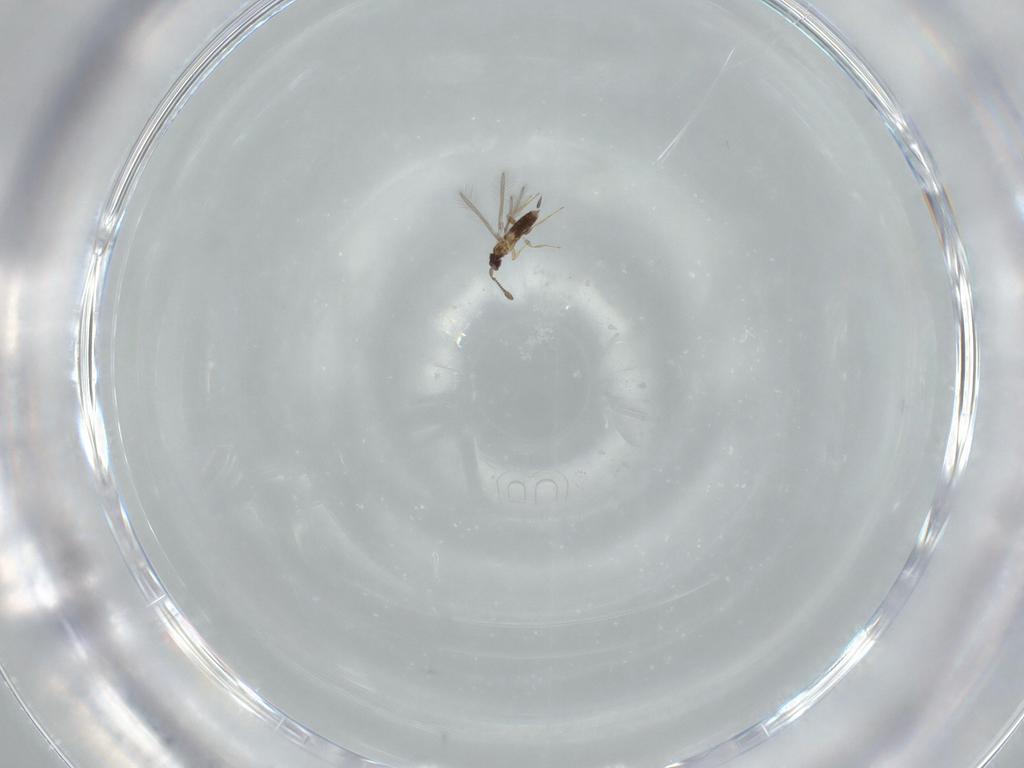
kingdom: Animalia
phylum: Arthropoda
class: Insecta
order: Hymenoptera
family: Mymaridae
